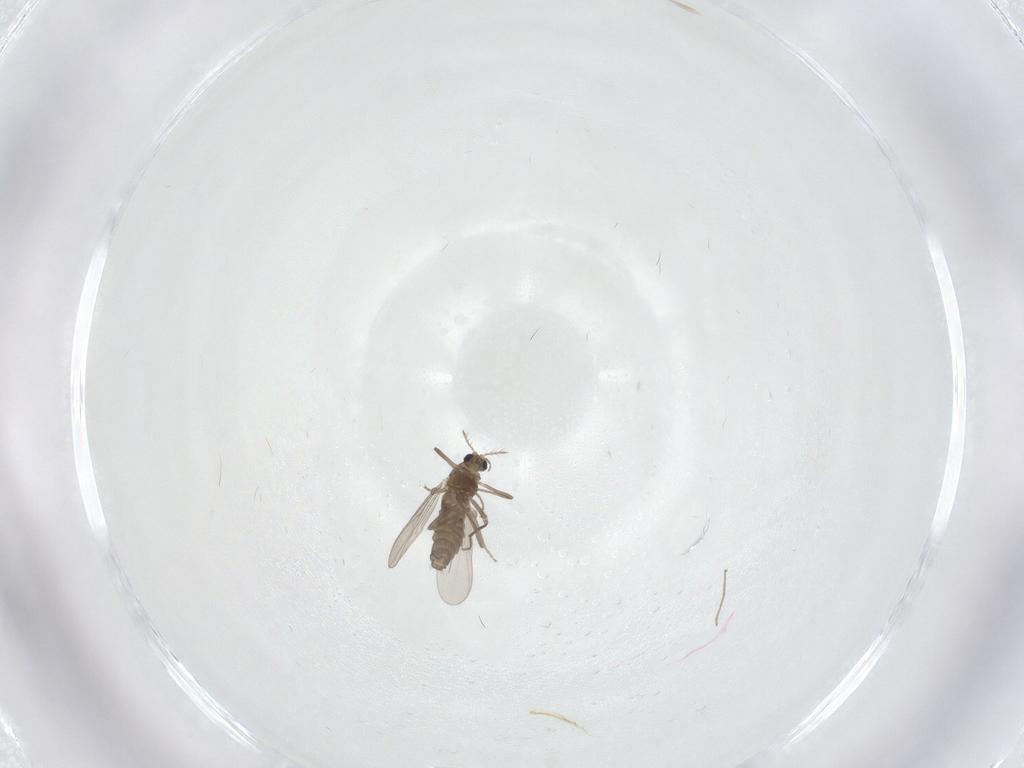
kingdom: Animalia
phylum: Arthropoda
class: Insecta
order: Diptera
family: Chironomidae
